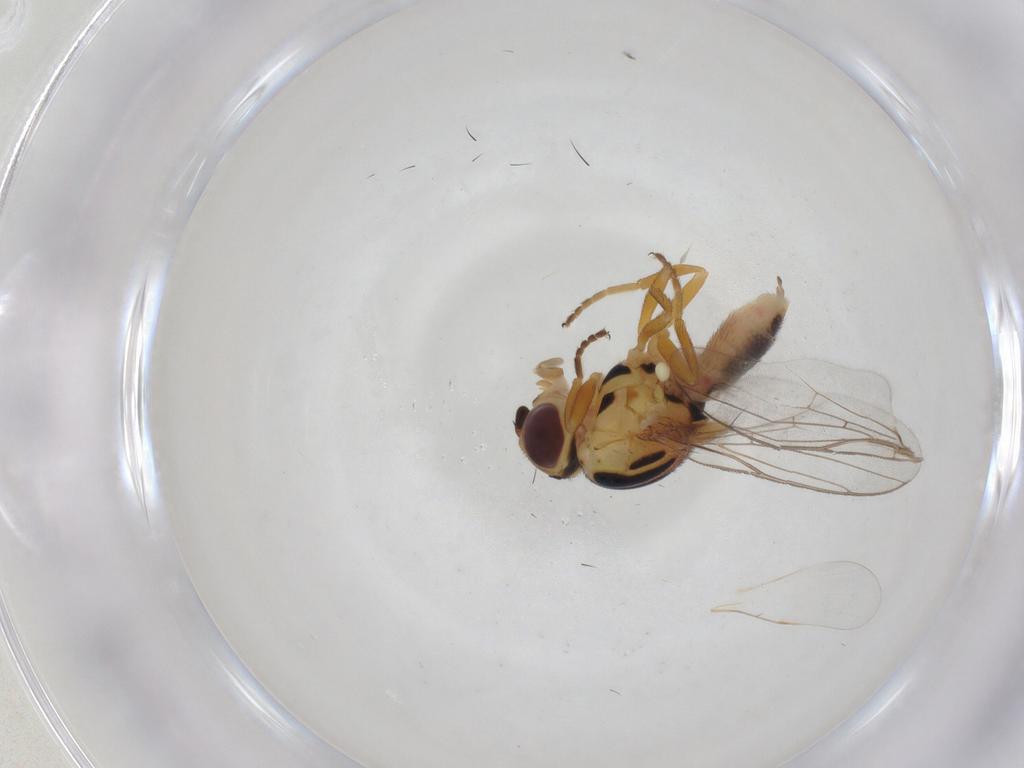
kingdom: Animalia
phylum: Arthropoda
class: Insecta
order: Diptera
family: Chloropidae
